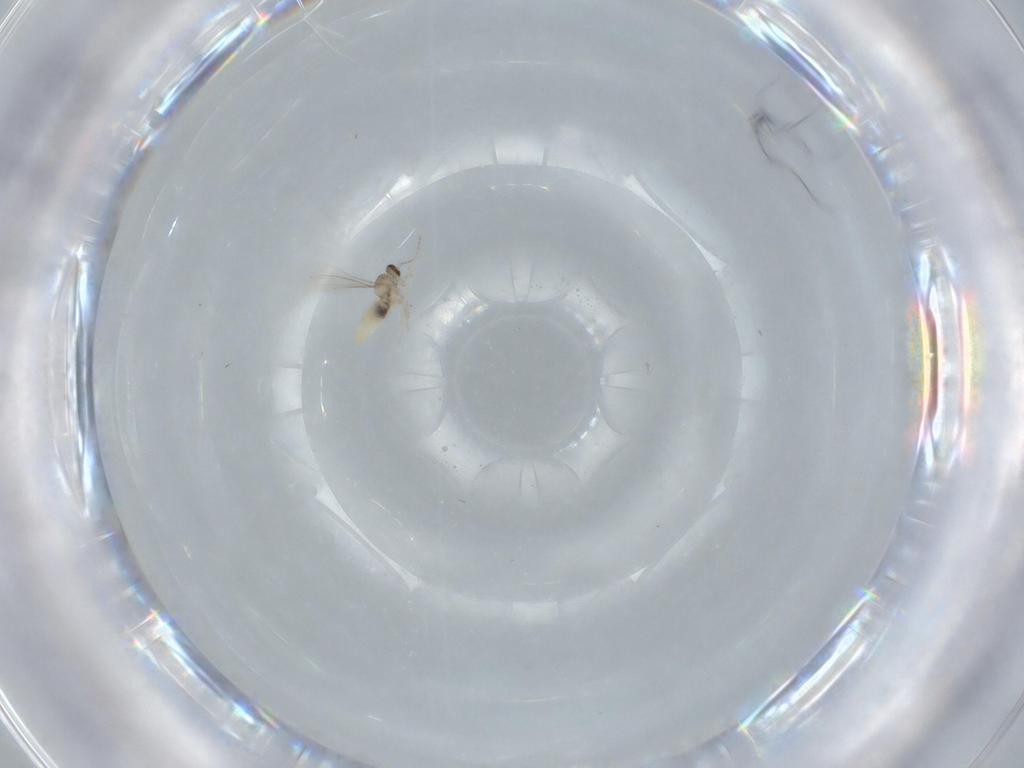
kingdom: Animalia
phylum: Arthropoda
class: Insecta
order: Diptera
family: Cecidomyiidae
